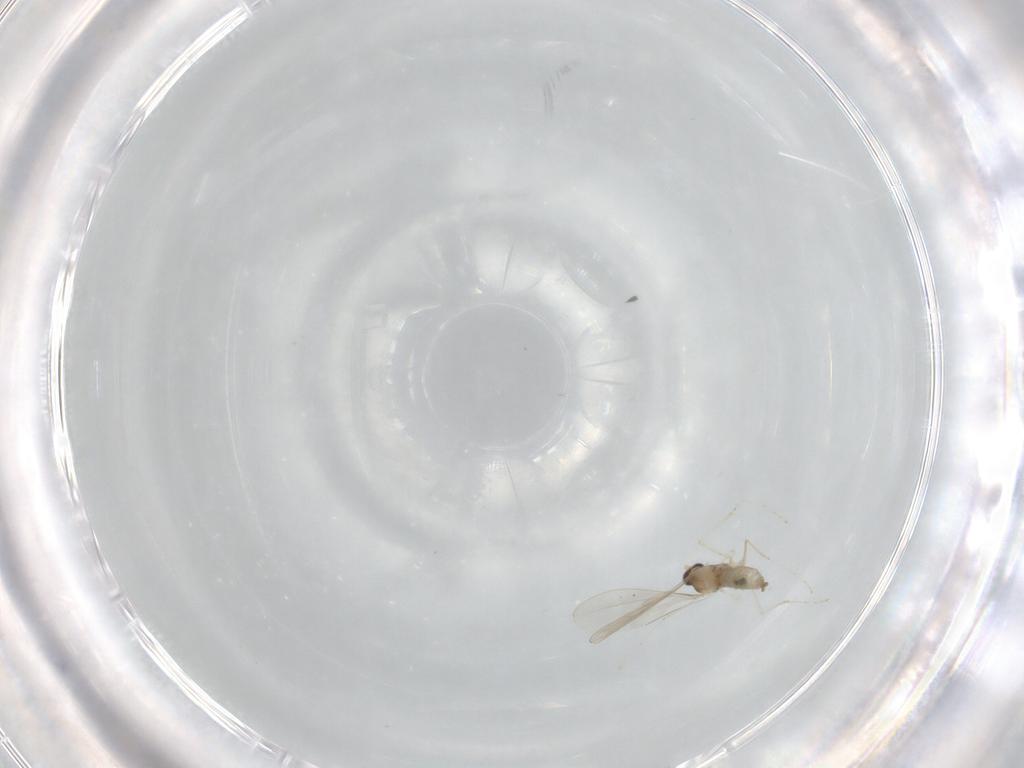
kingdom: Animalia
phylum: Arthropoda
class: Insecta
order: Diptera
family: Cecidomyiidae
